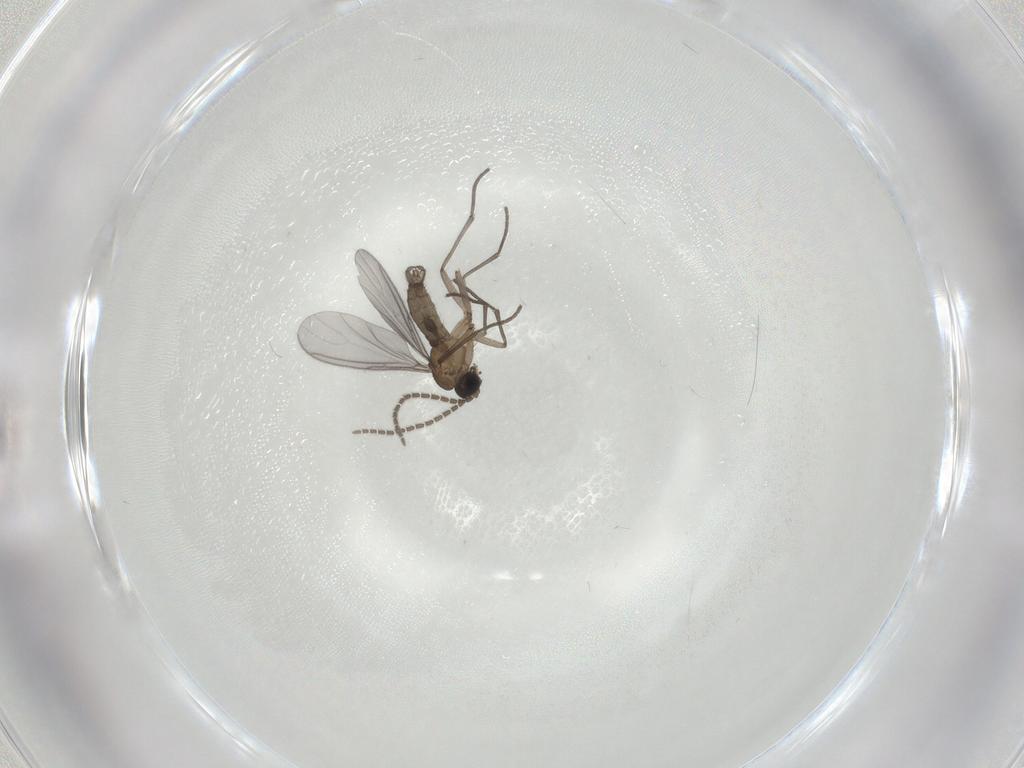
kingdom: Animalia
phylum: Arthropoda
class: Insecta
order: Diptera
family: Sciaridae
